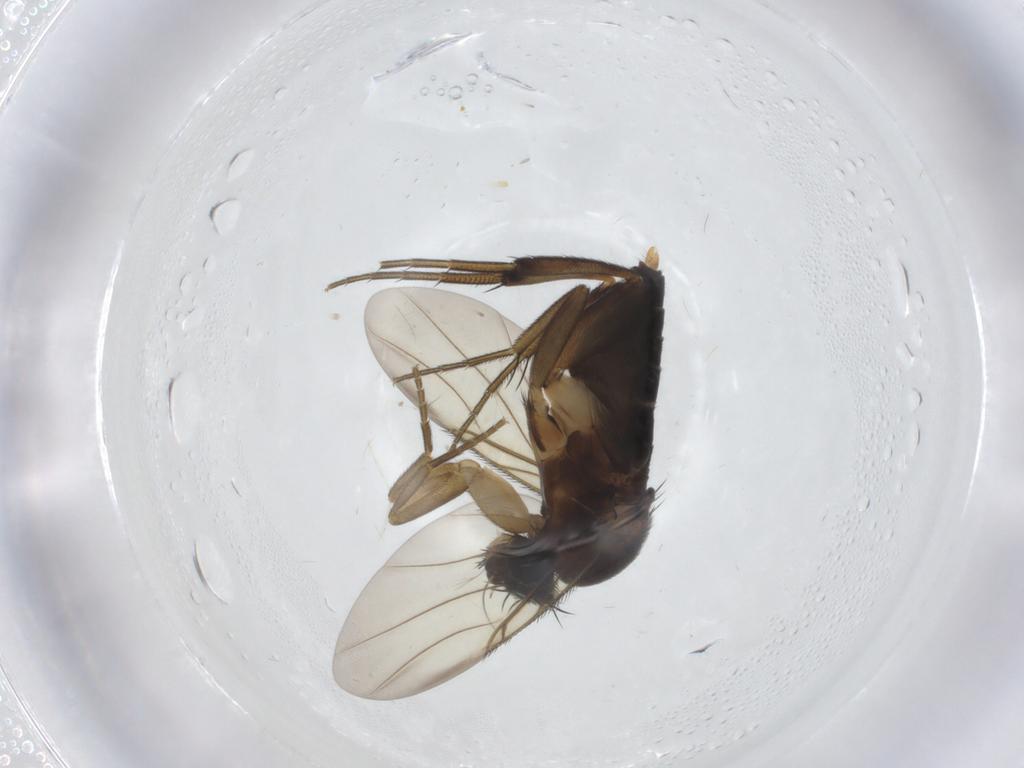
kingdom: Animalia
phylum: Arthropoda
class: Insecta
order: Diptera
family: Phoridae
